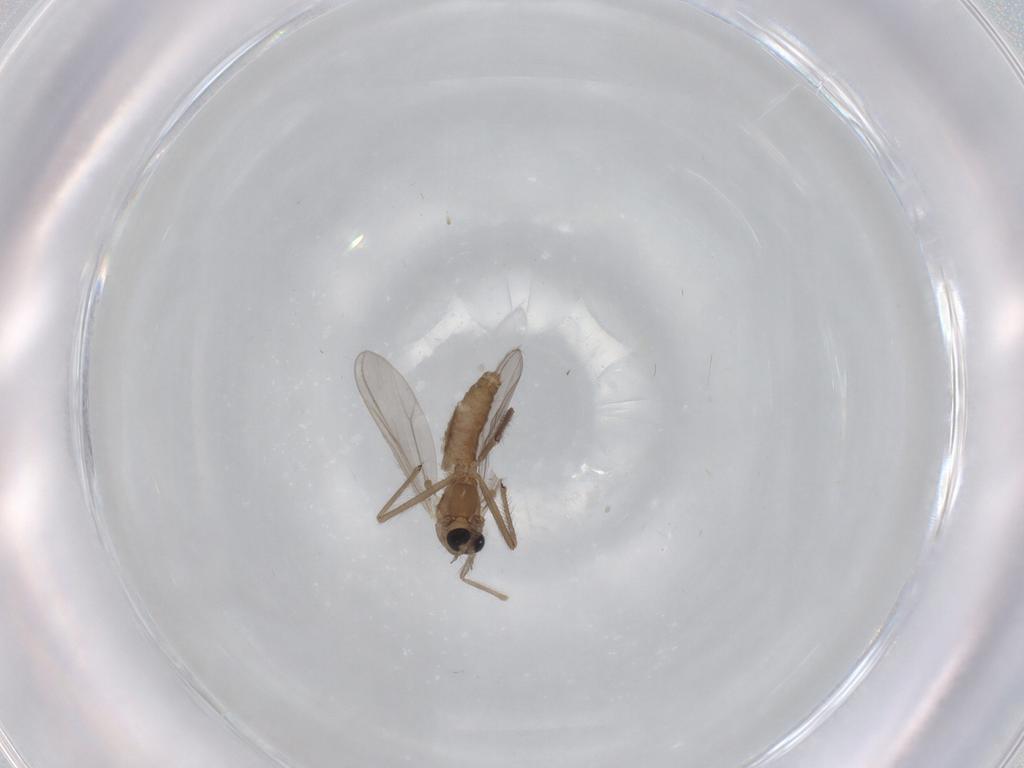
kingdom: Animalia
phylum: Arthropoda
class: Insecta
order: Diptera
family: Chironomidae
